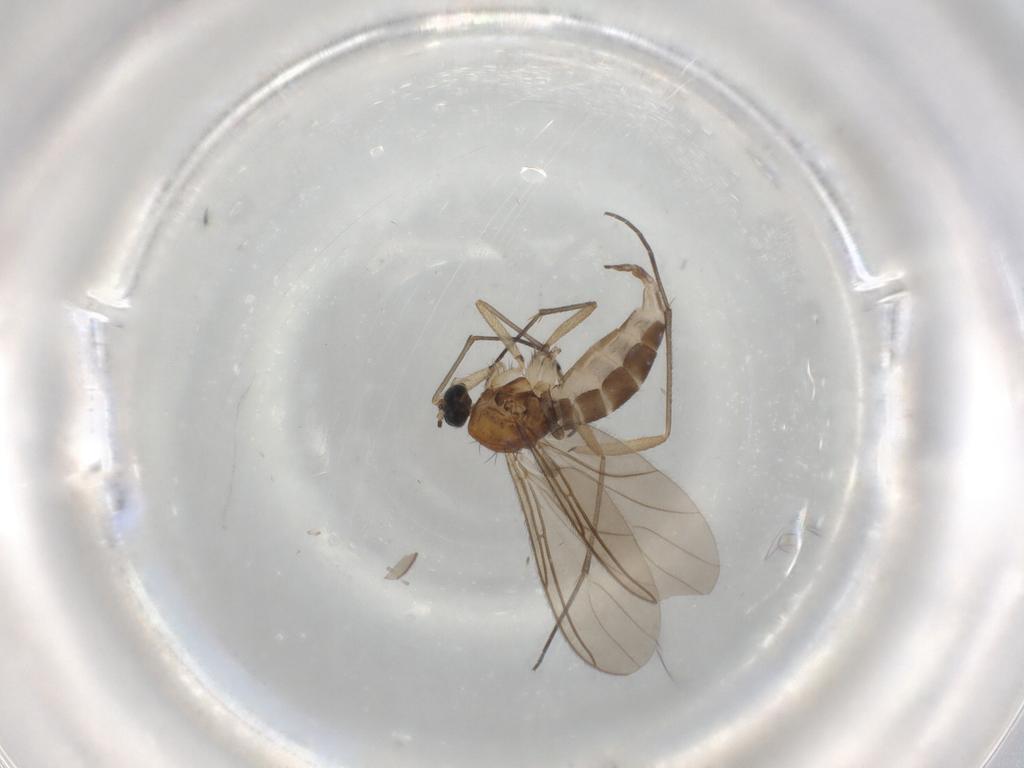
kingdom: Animalia
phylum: Arthropoda
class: Insecta
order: Diptera
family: Sciaridae
